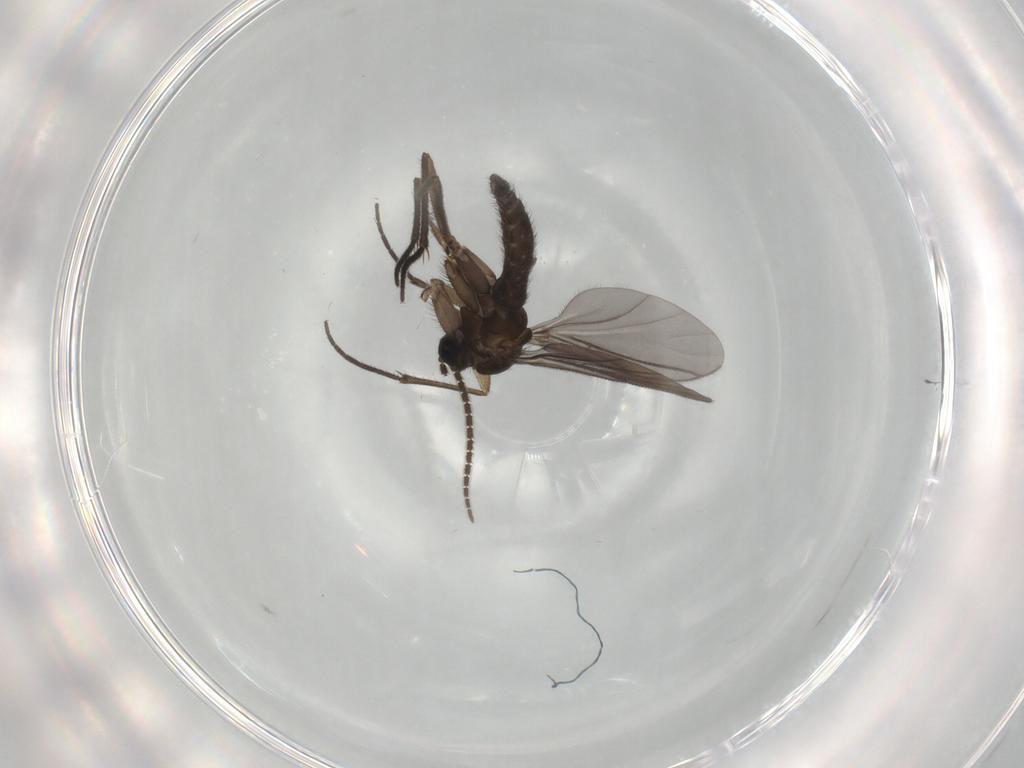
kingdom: Animalia
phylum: Arthropoda
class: Insecta
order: Diptera
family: Sciaridae
